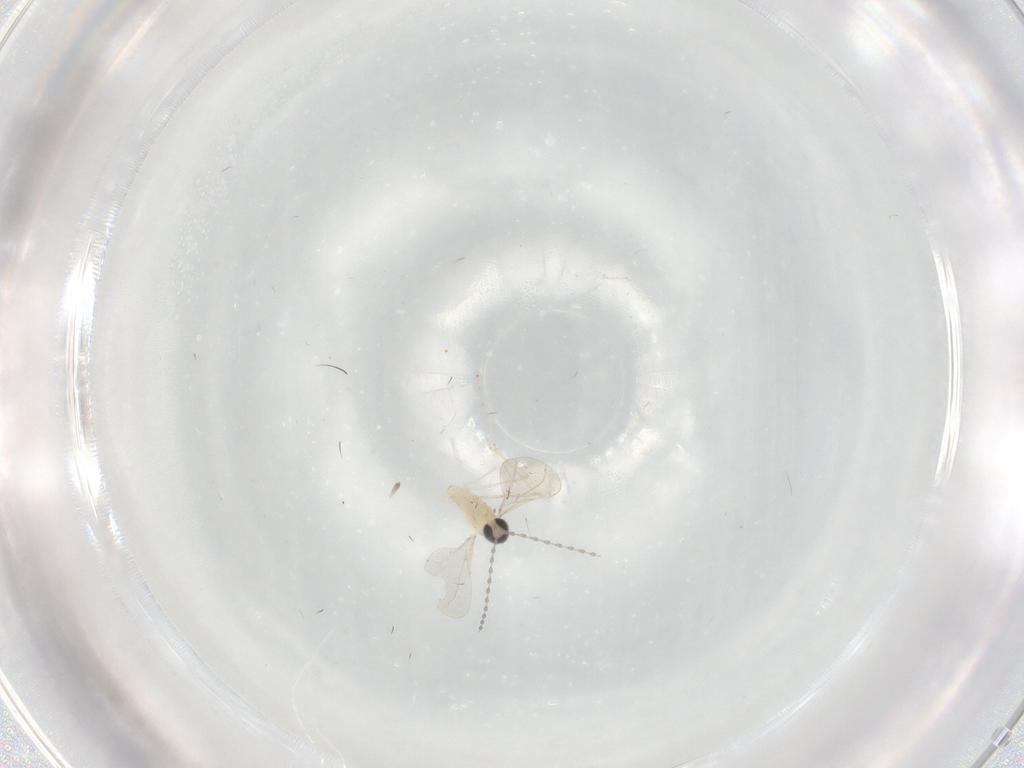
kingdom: Animalia
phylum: Arthropoda
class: Insecta
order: Diptera
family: Cecidomyiidae
